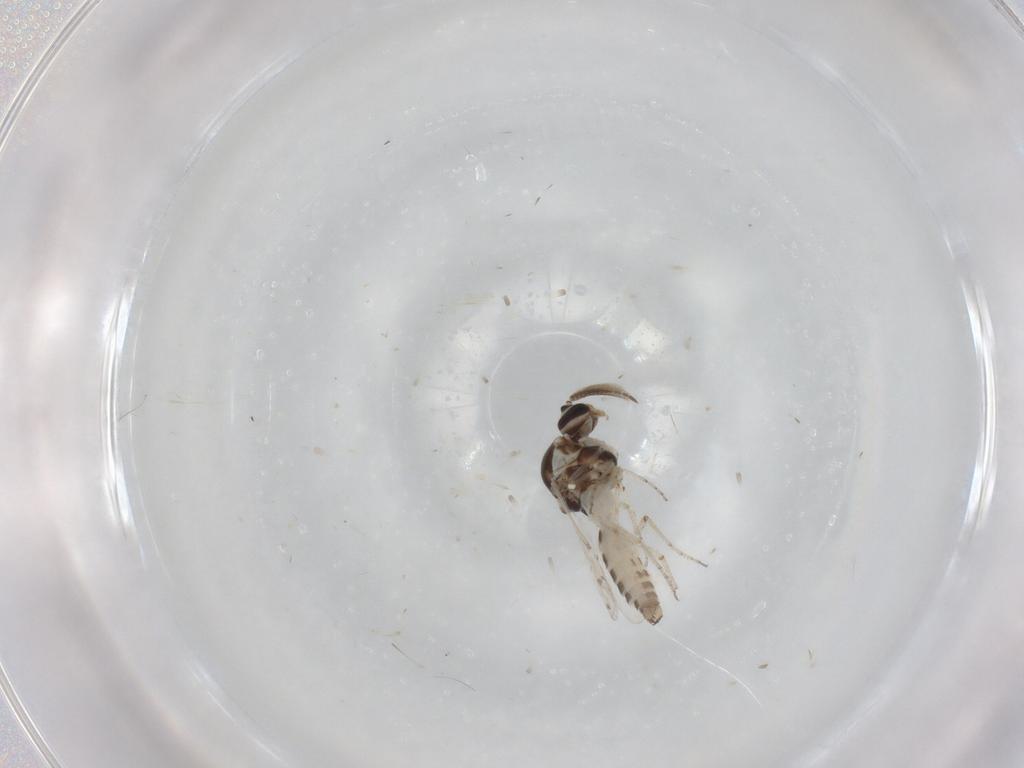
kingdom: Animalia
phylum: Arthropoda
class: Insecta
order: Diptera
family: Ceratopogonidae
